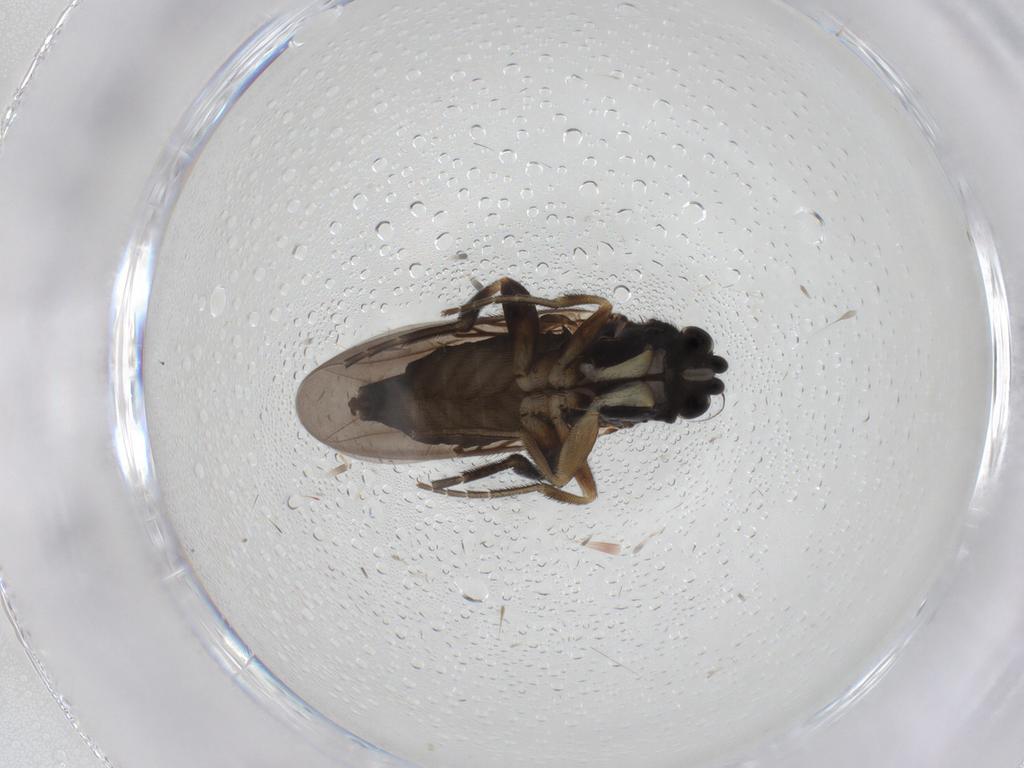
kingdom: Animalia
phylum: Arthropoda
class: Insecta
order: Diptera
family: Phoridae
